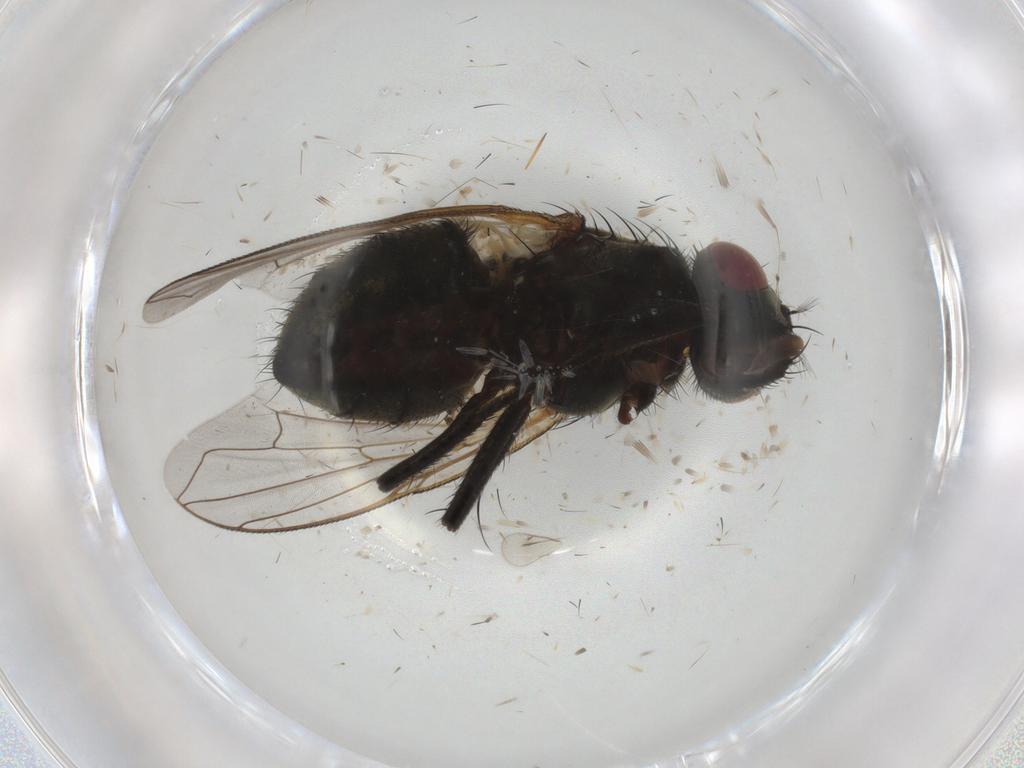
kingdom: Animalia
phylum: Arthropoda
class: Insecta
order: Diptera
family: Muscidae
